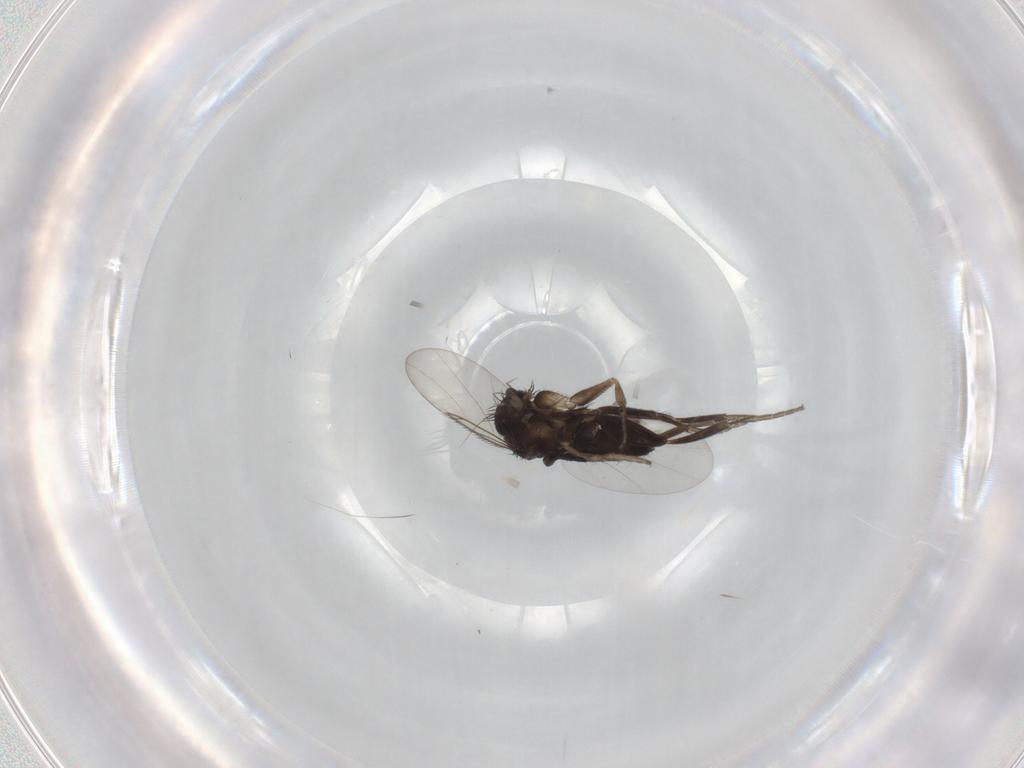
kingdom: Animalia
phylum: Arthropoda
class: Insecta
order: Diptera
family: Phoridae
